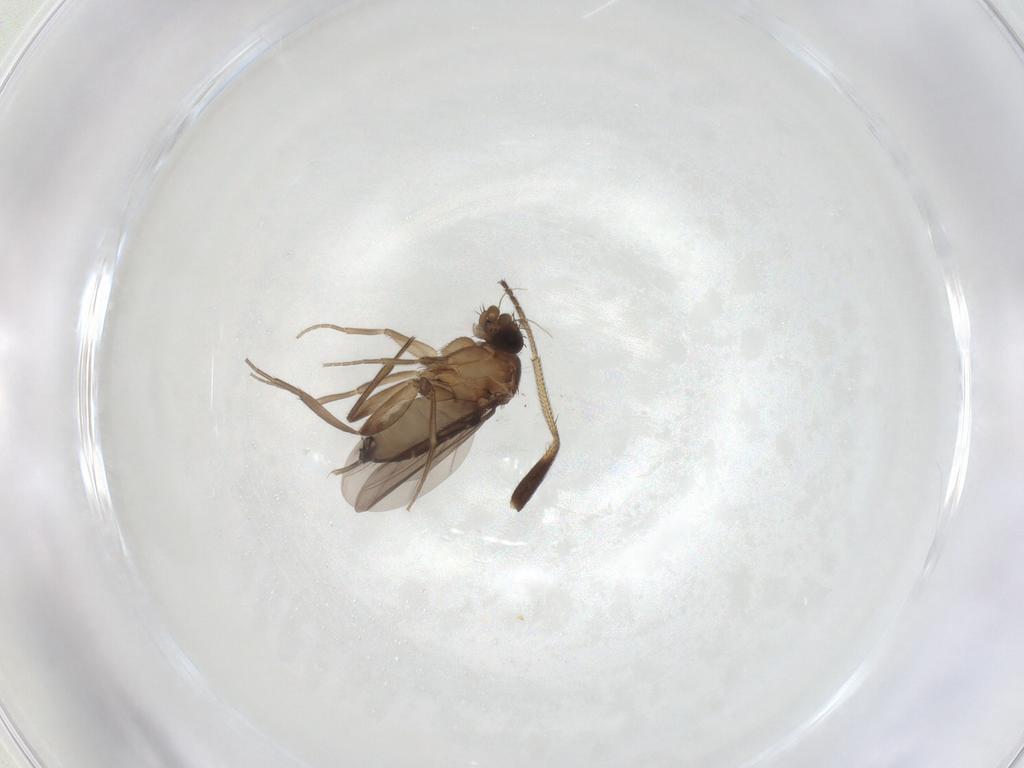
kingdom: Animalia
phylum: Arthropoda
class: Insecta
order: Diptera
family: Phoridae
